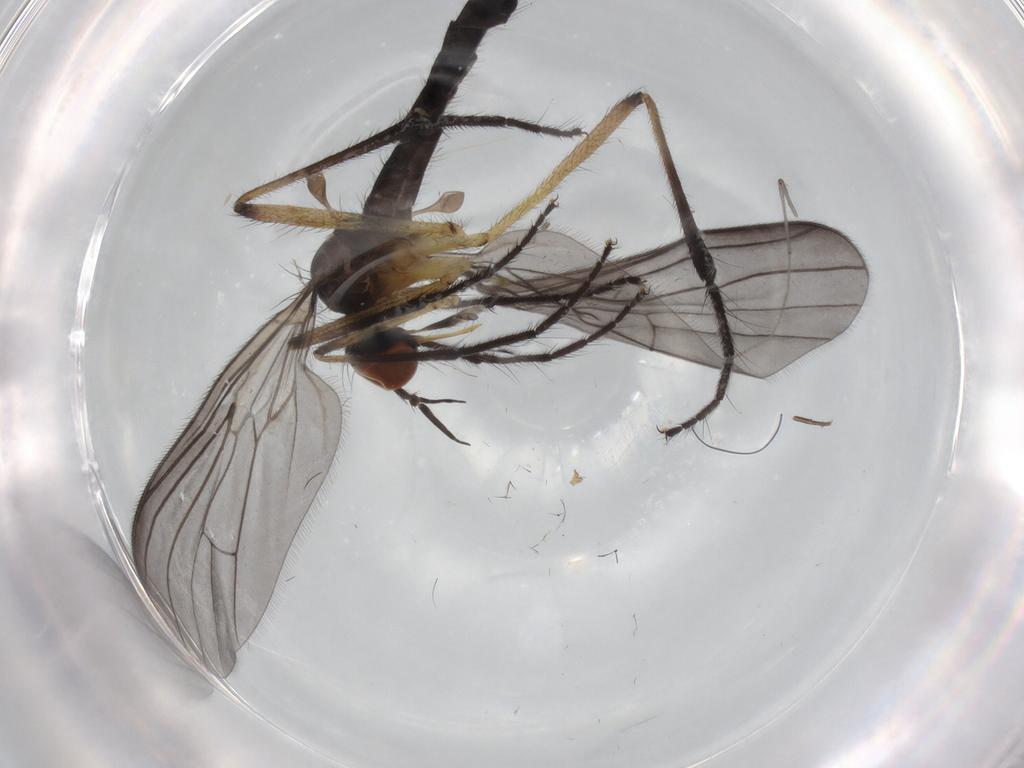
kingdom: Animalia
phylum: Arthropoda
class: Insecta
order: Diptera
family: Empididae
